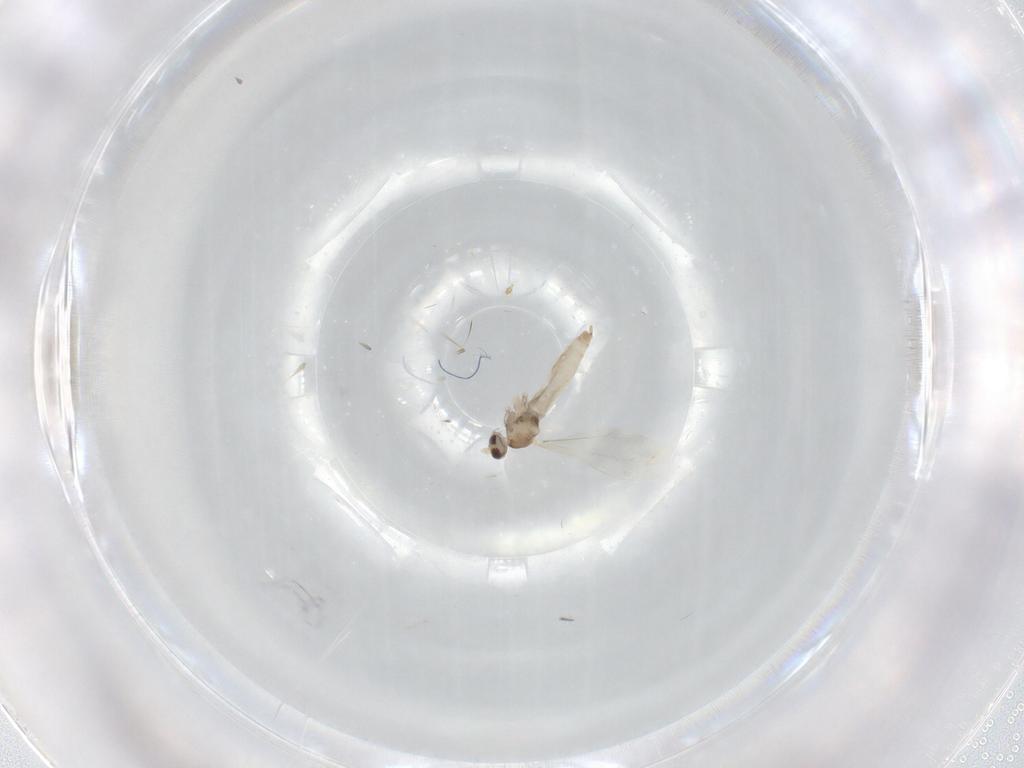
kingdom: Animalia
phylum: Arthropoda
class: Insecta
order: Diptera
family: Cecidomyiidae
